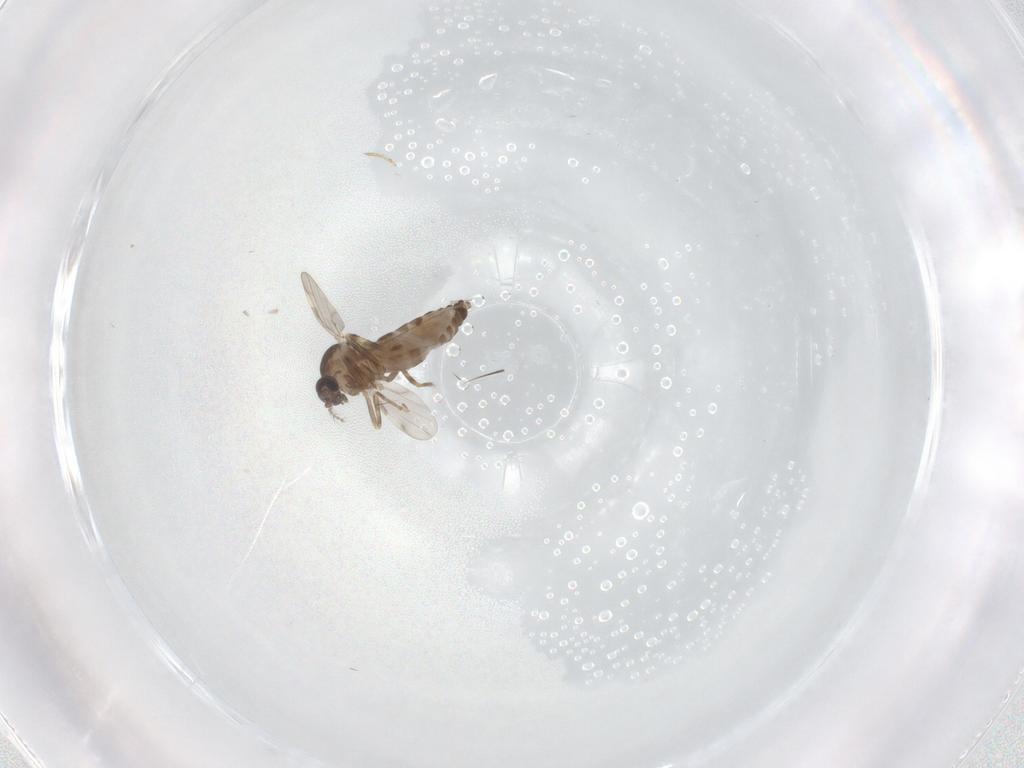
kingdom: Animalia
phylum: Arthropoda
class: Insecta
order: Diptera
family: Ceratopogonidae
